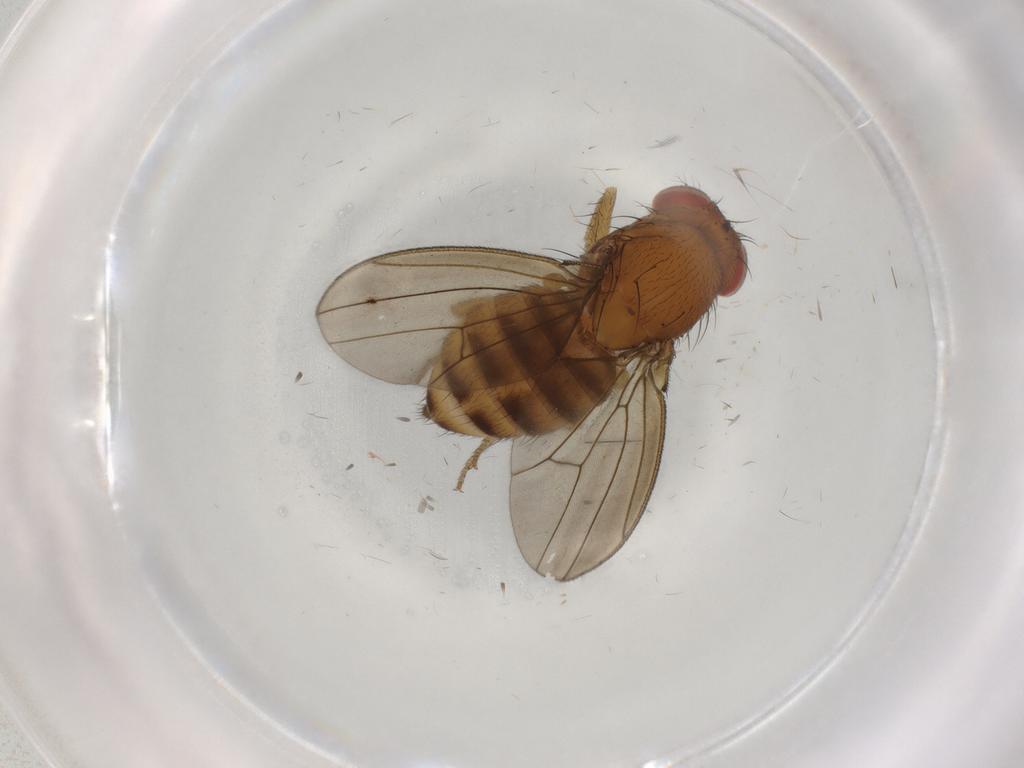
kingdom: Animalia
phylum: Arthropoda
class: Insecta
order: Diptera
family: Drosophilidae
